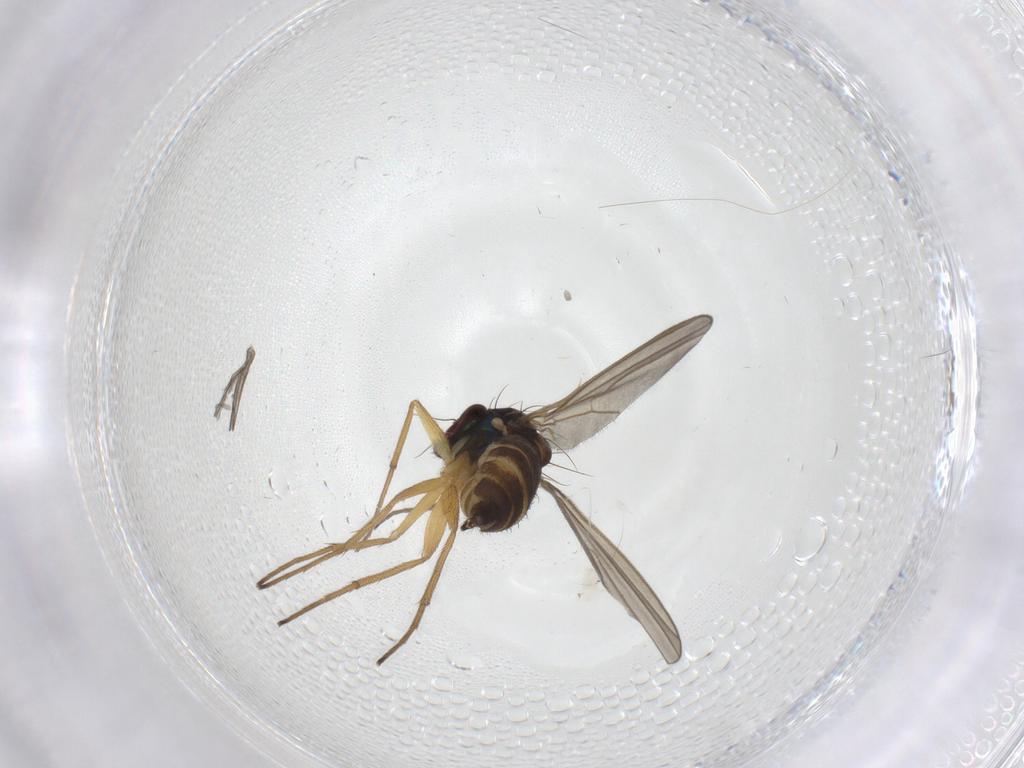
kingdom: Animalia
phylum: Arthropoda
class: Insecta
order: Diptera
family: Dolichopodidae
